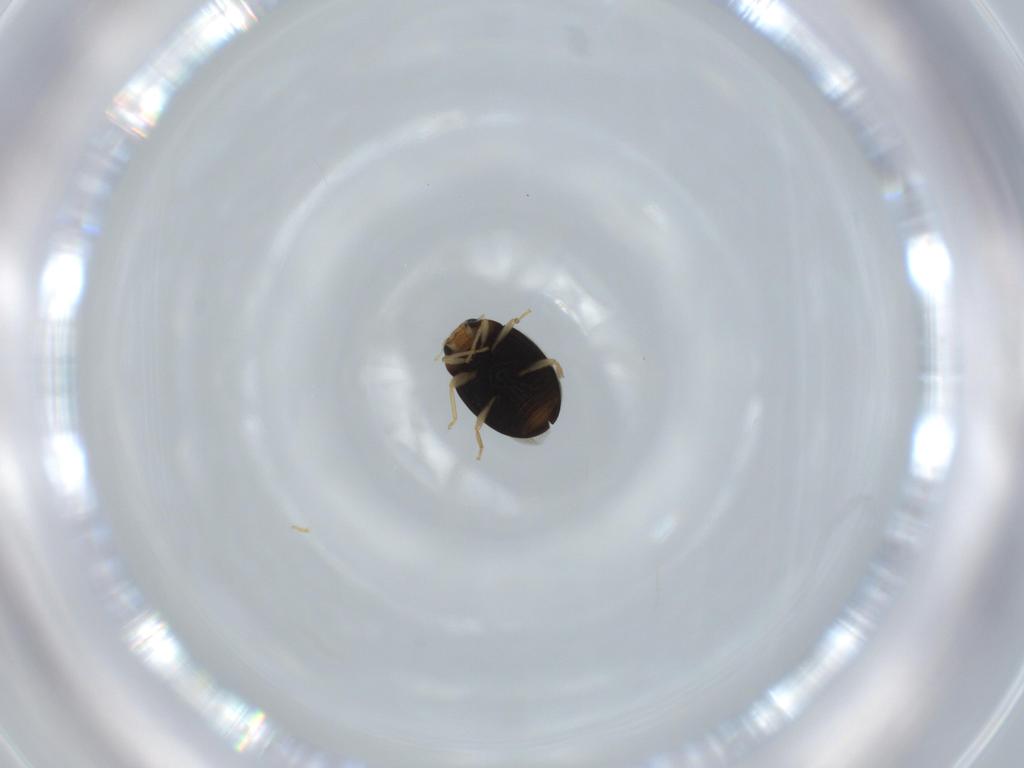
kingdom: Animalia
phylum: Arthropoda
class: Insecta
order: Coleoptera
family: Coccinellidae
